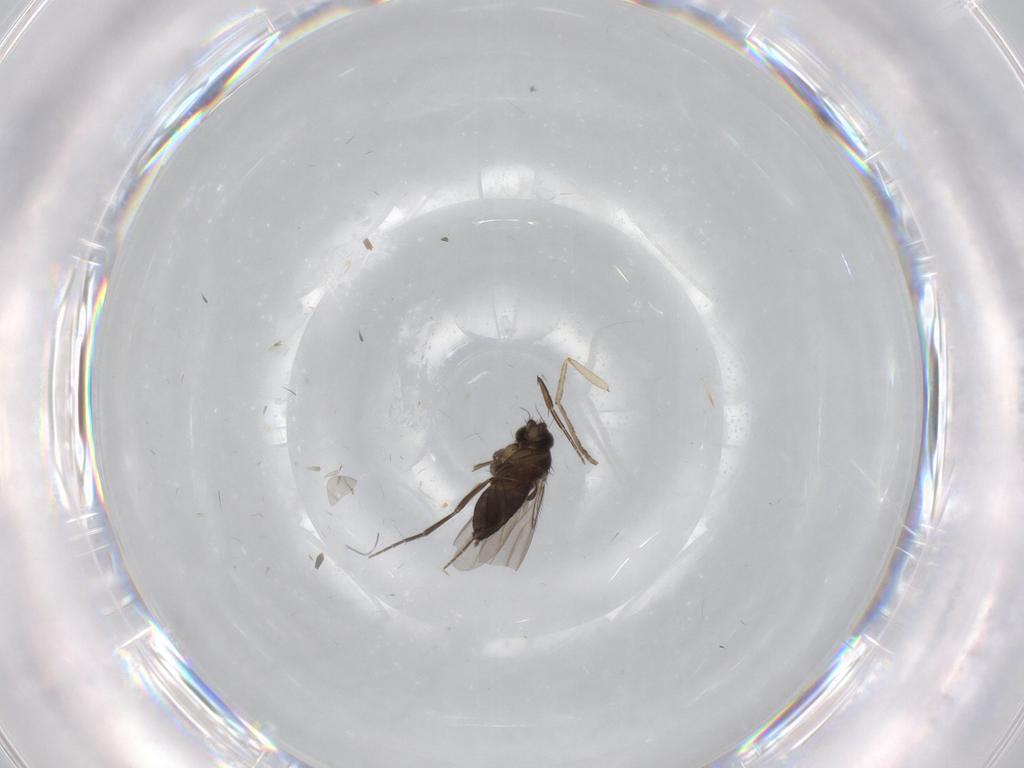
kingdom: Animalia
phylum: Arthropoda
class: Insecta
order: Diptera
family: Phoridae
